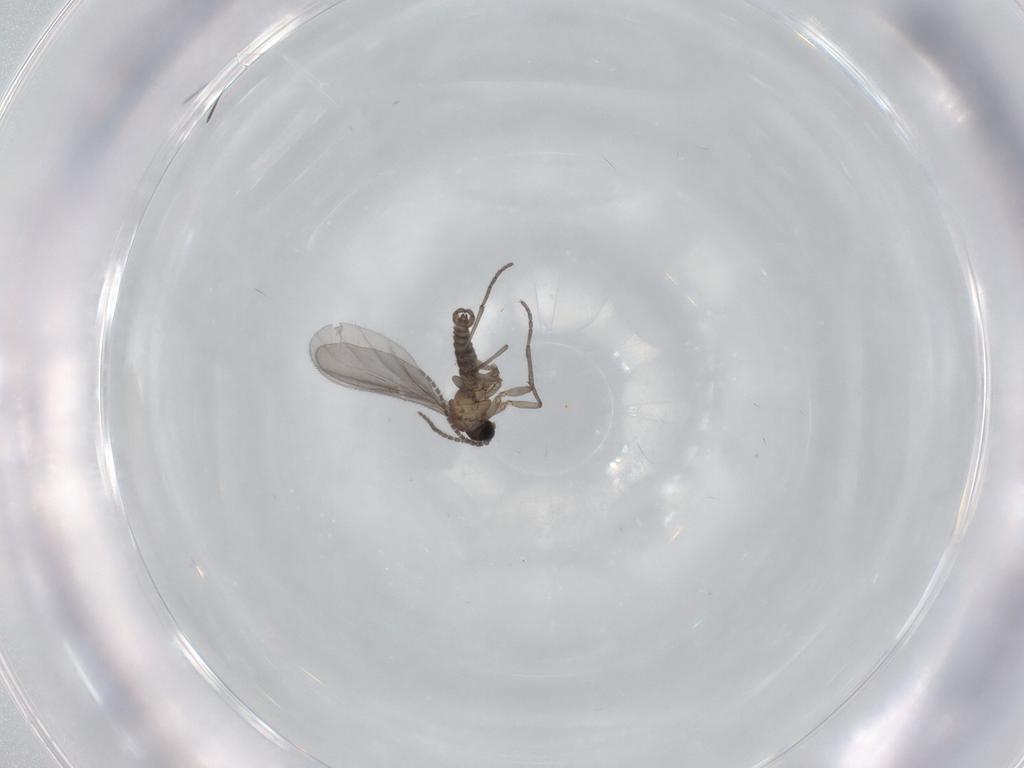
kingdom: Animalia
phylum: Arthropoda
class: Insecta
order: Diptera
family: Sciaridae
